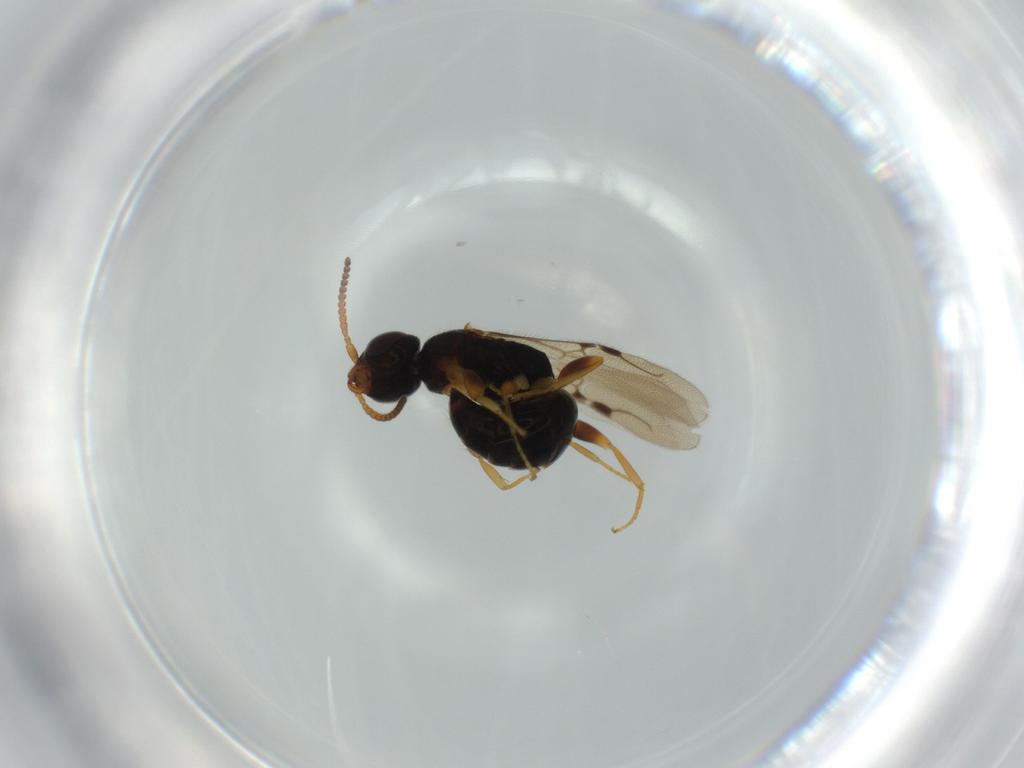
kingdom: Animalia
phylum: Arthropoda
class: Insecta
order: Hymenoptera
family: Bethylidae
